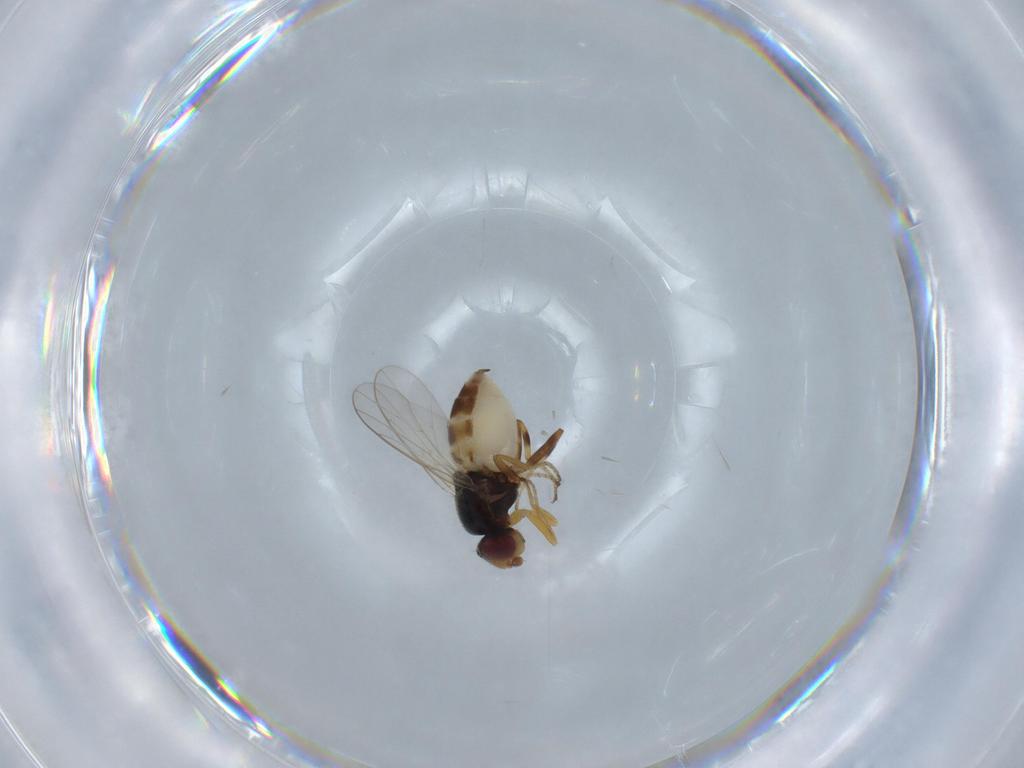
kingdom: Animalia
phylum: Arthropoda
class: Insecta
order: Diptera
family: Chloropidae
